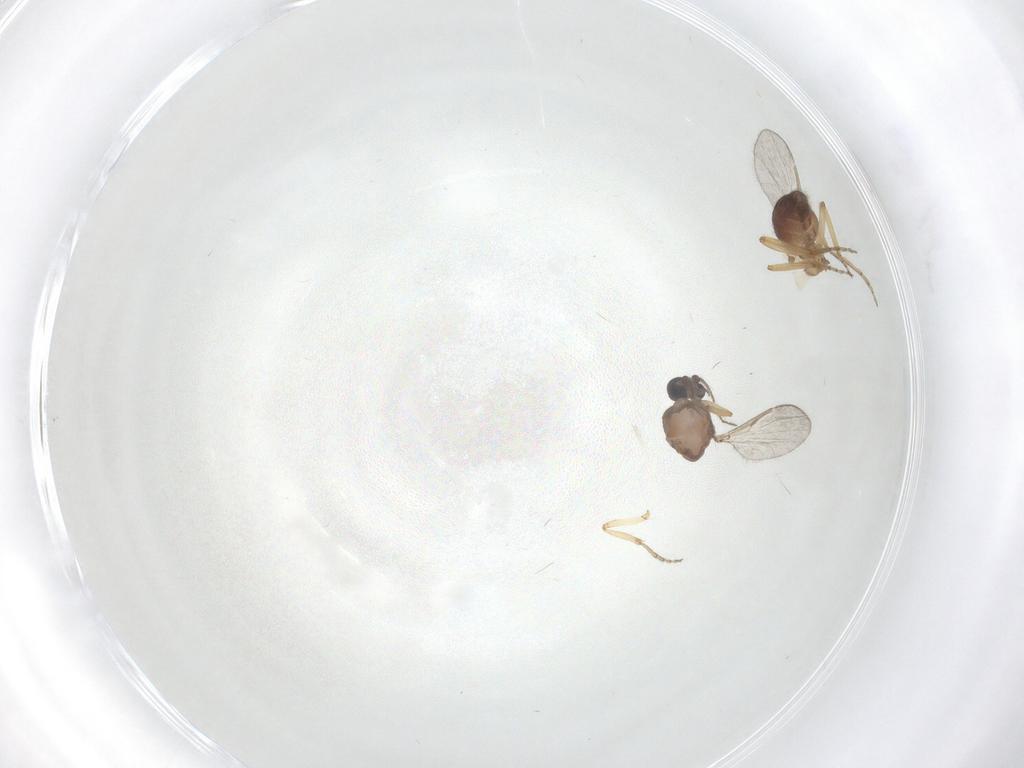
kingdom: Animalia
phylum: Arthropoda
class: Insecta
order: Diptera
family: Ceratopogonidae
